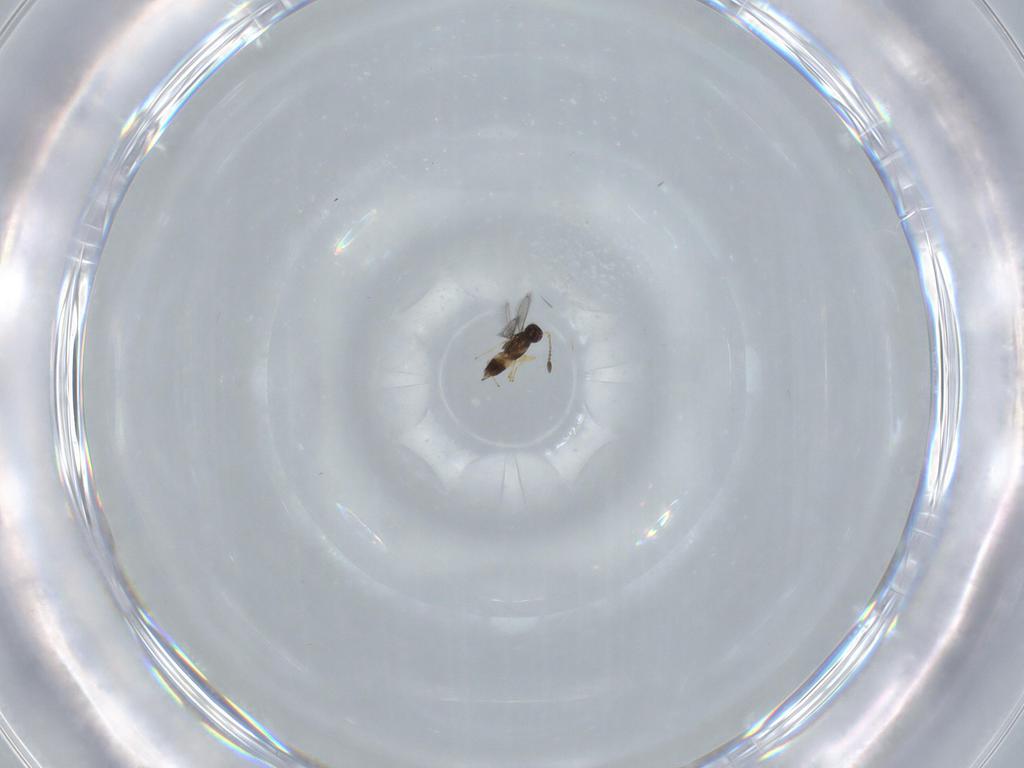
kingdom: Animalia
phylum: Arthropoda
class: Insecta
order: Hymenoptera
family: Mymaridae
